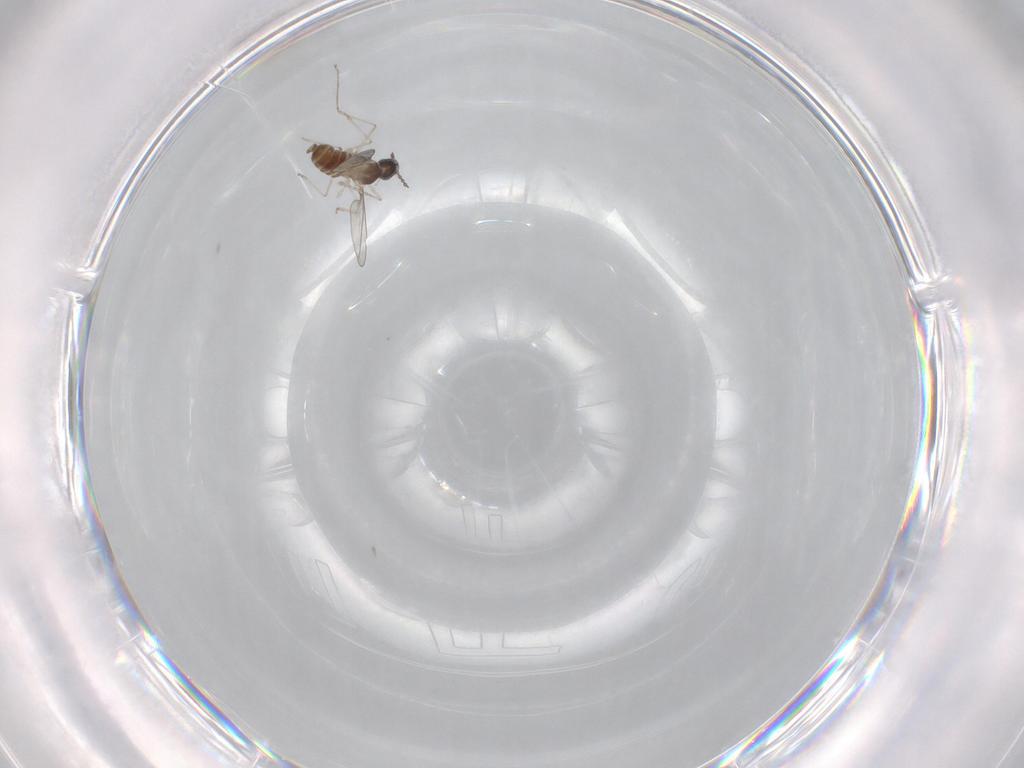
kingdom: Animalia
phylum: Arthropoda
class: Insecta
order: Diptera
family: Cecidomyiidae
